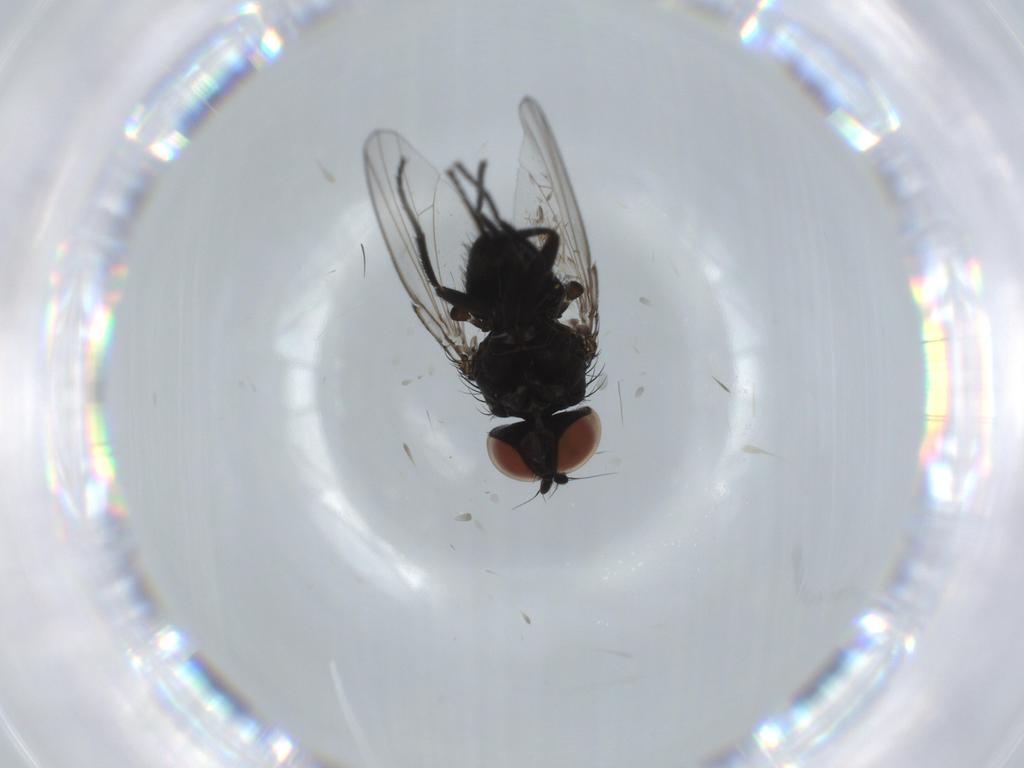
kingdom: Animalia
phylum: Arthropoda
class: Insecta
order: Diptera
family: Milichiidae
